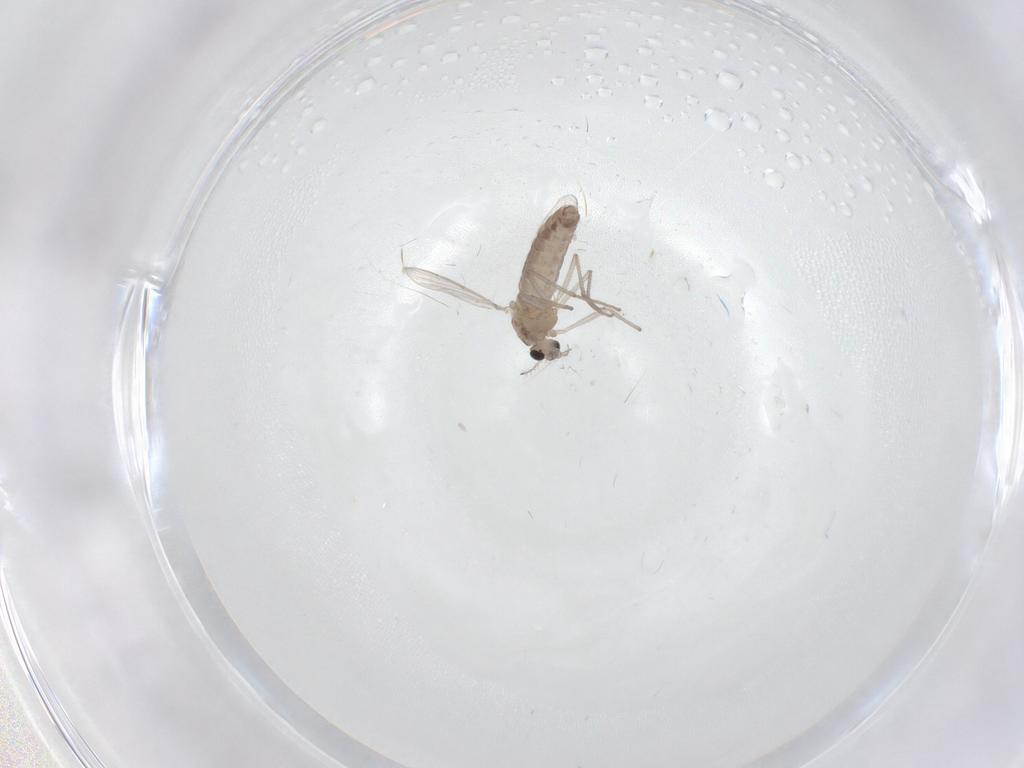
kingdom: Animalia
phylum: Arthropoda
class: Insecta
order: Diptera
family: Chironomidae
